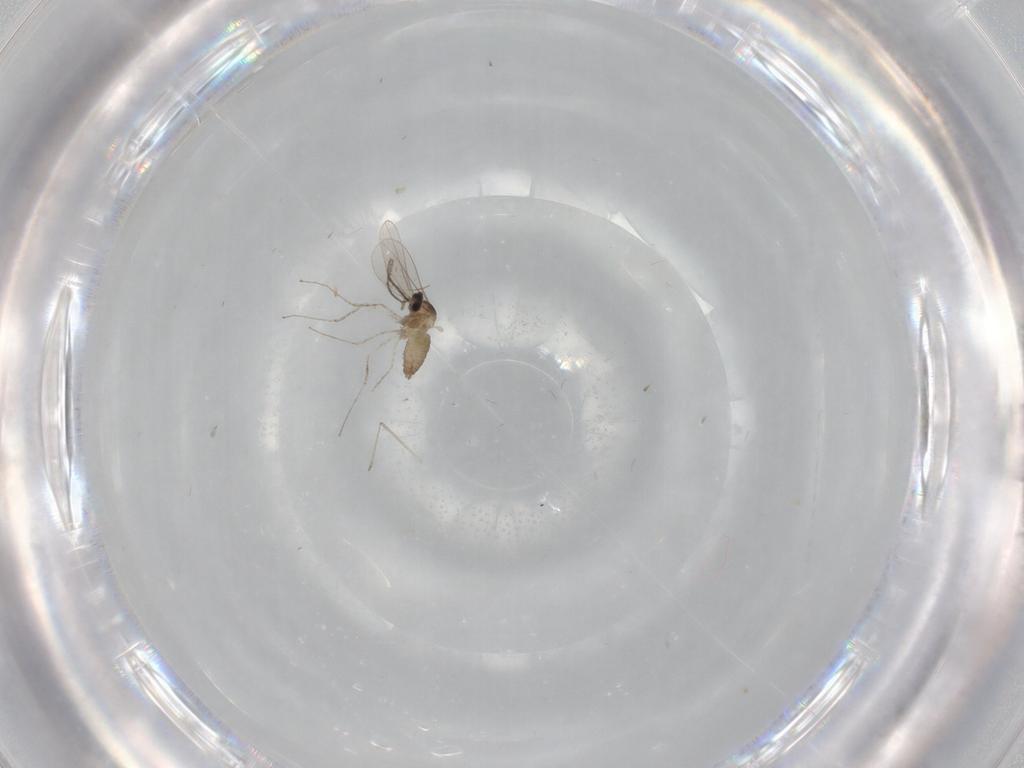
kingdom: Animalia
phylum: Arthropoda
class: Insecta
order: Diptera
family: Cecidomyiidae
